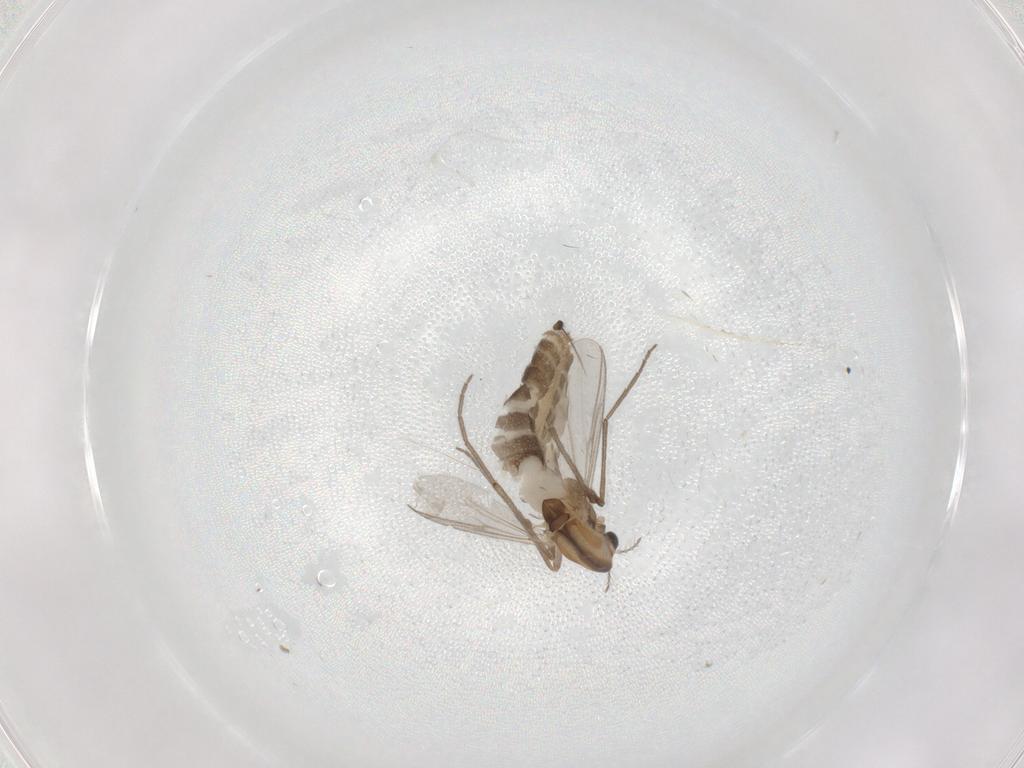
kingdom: Animalia
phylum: Arthropoda
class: Insecta
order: Diptera
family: Chironomidae
